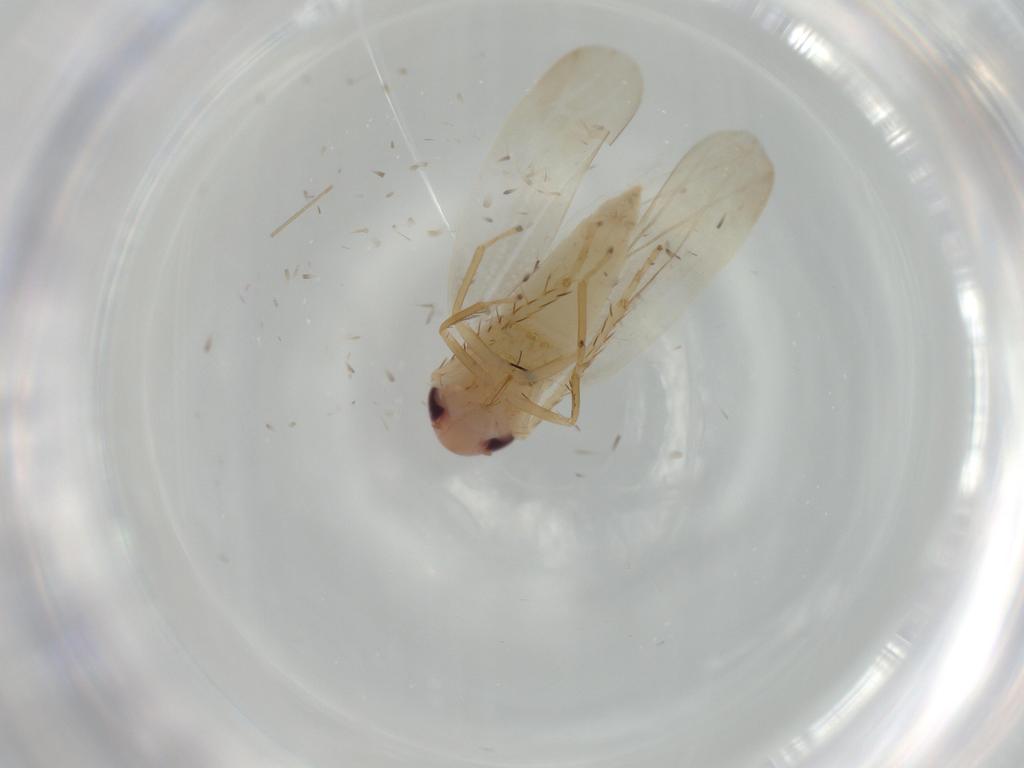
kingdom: Animalia
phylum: Arthropoda
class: Insecta
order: Hemiptera
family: Cicadellidae
